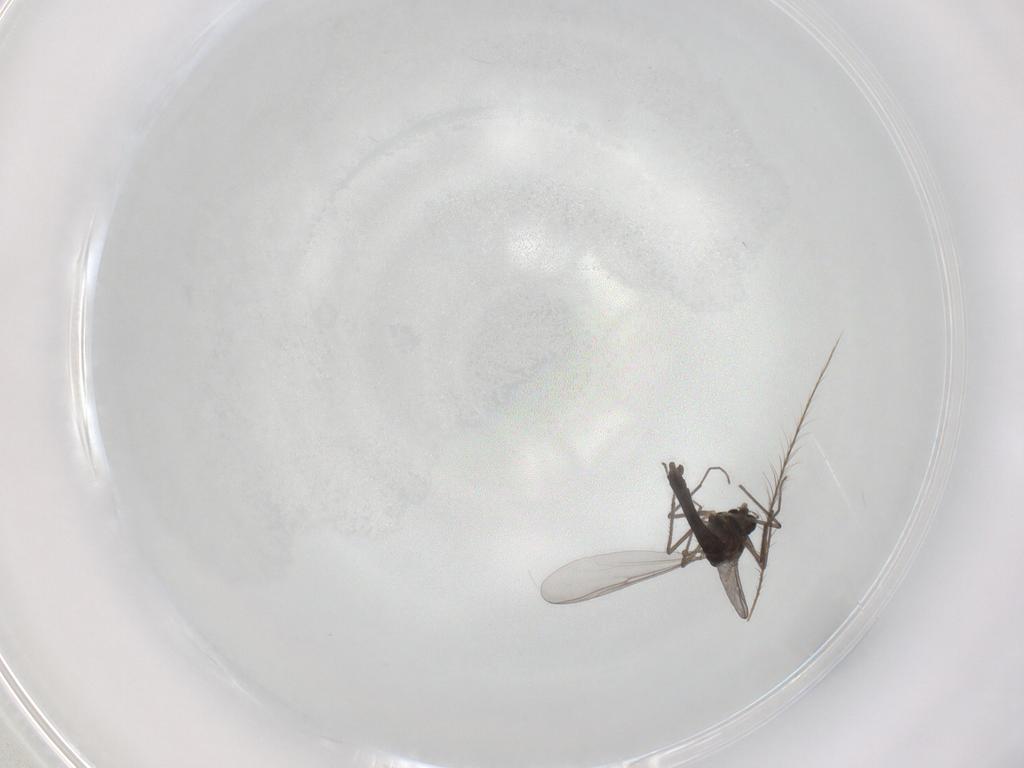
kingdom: Animalia
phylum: Arthropoda
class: Insecta
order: Diptera
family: Chironomidae
